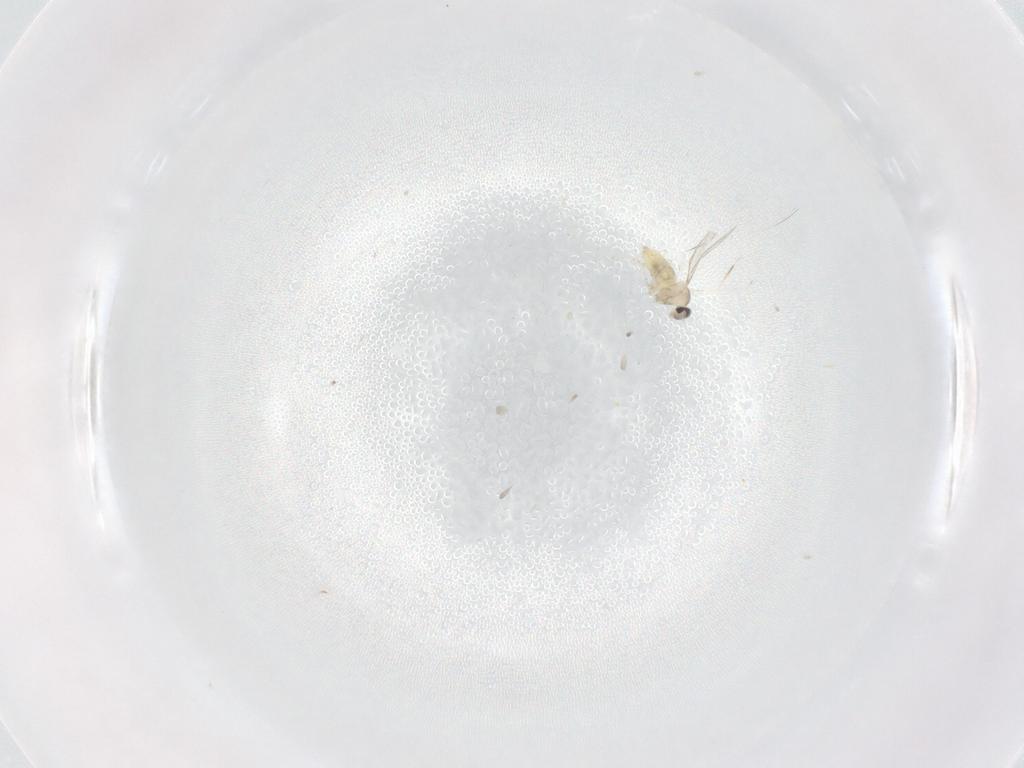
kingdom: Animalia
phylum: Arthropoda
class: Insecta
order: Diptera
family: Cecidomyiidae
